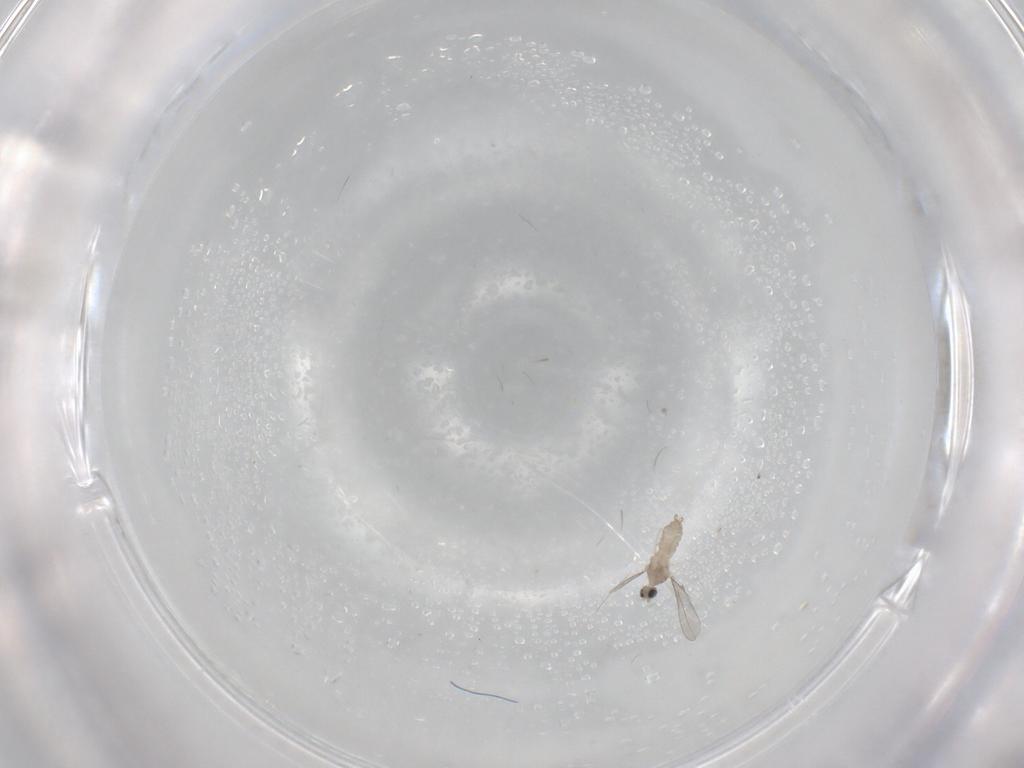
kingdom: Animalia
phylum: Arthropoda
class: Insecta
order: Diptera
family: Cecidomyiidae
